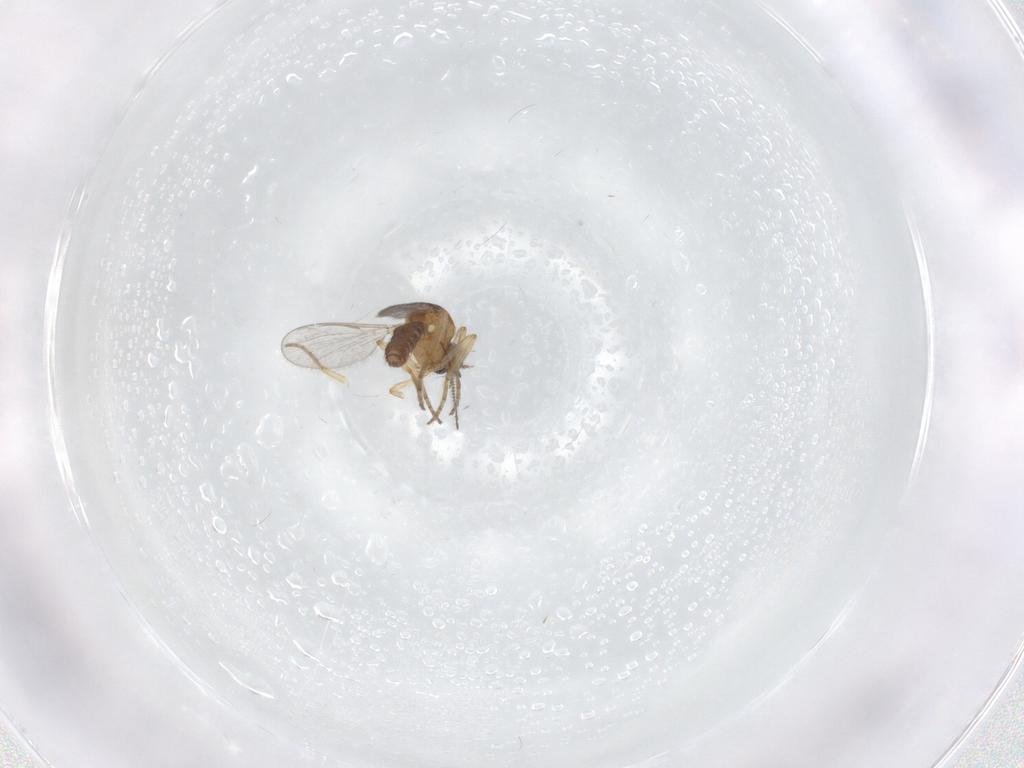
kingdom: Animalia
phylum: Arthropoda
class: Insecta
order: Diptera
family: Ceratopogonidae
